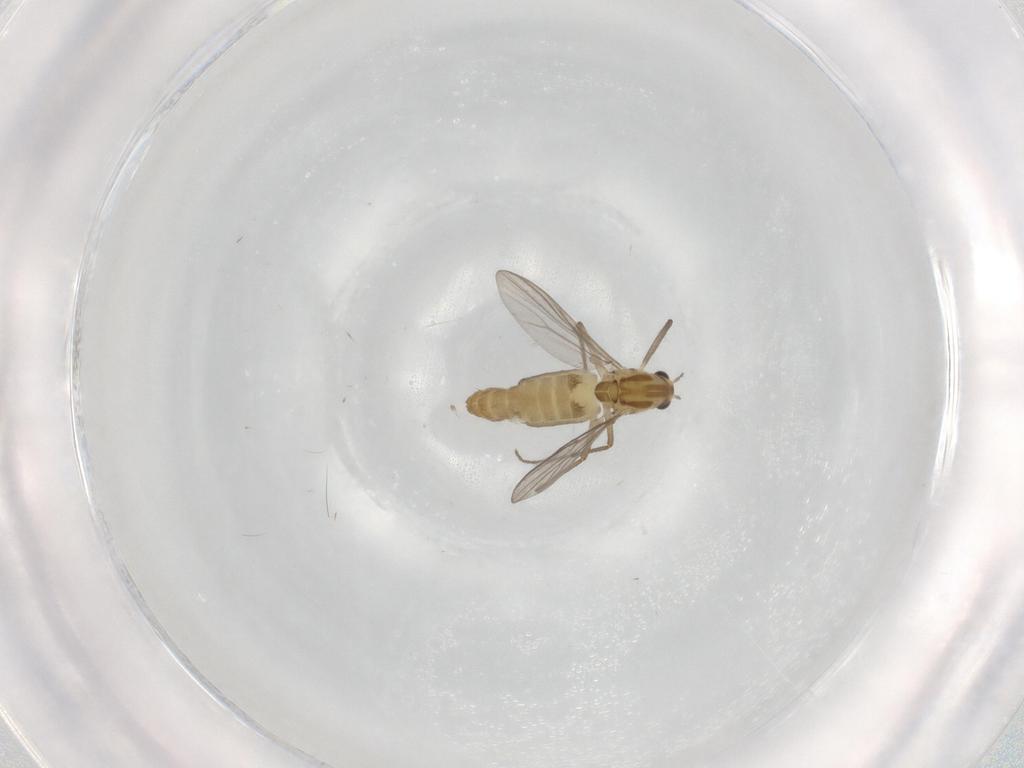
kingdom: Animalia
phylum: Arthropoda
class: Insecta
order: Diptera
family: Chironomidae
